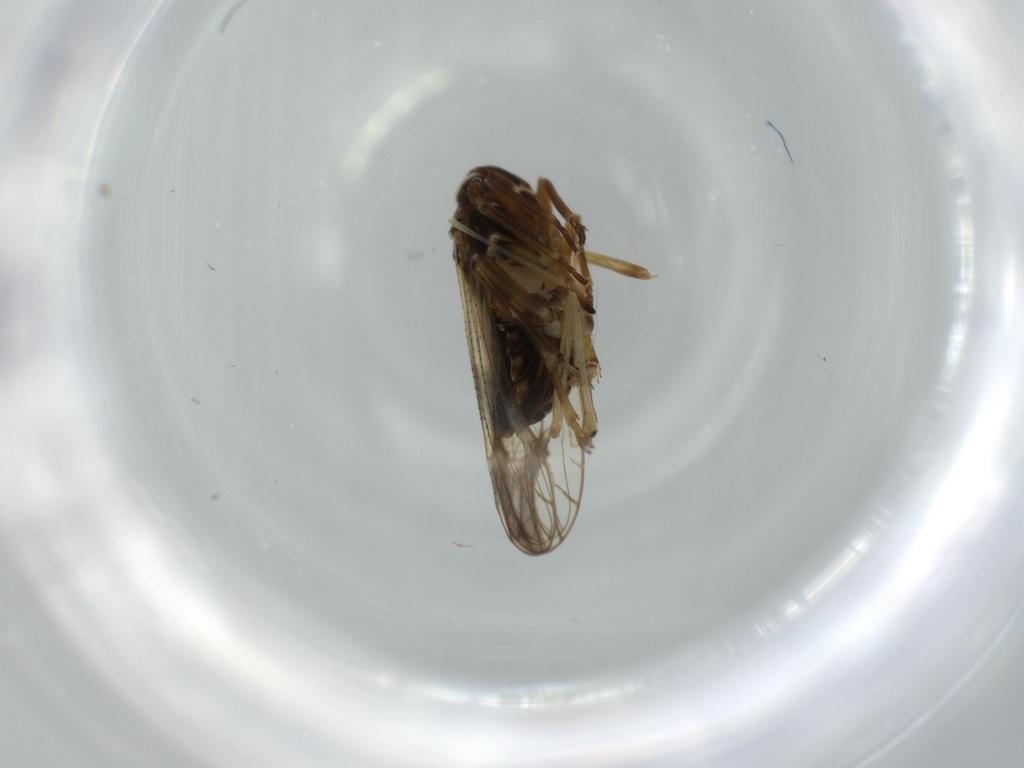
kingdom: Animalia
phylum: Arthropoda
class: Insecta
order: Hemiptera
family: Delphacidae
